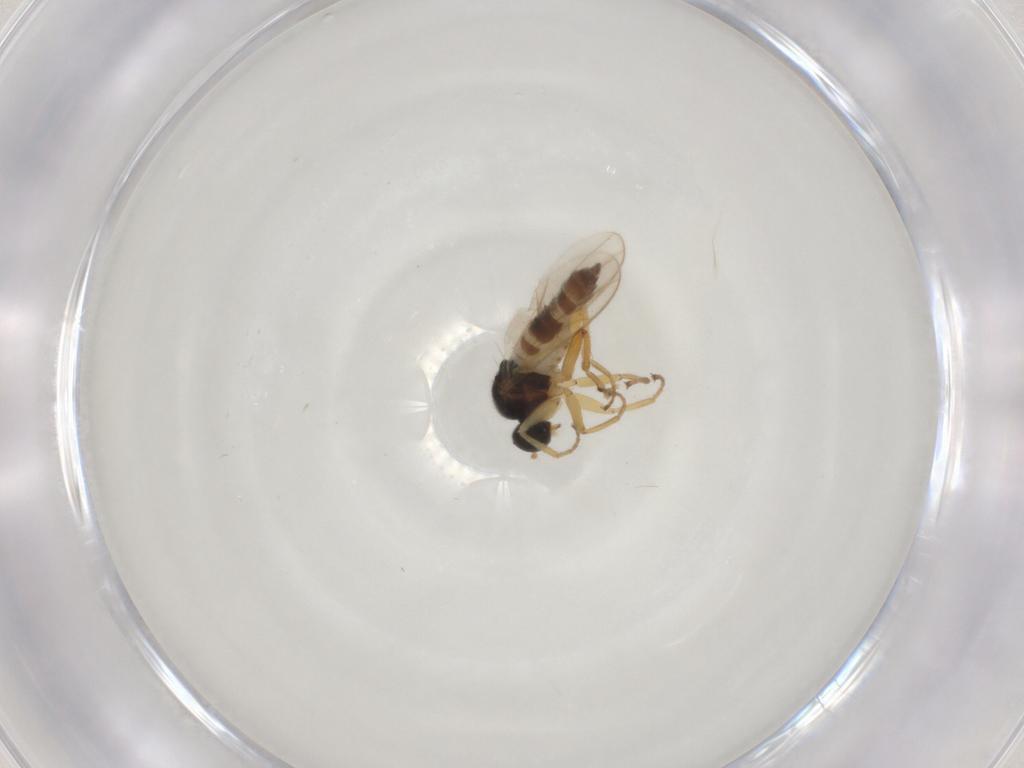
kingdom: Animalia
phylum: Arthropoda
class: Insecta
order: Diptera
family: Hybotidae
